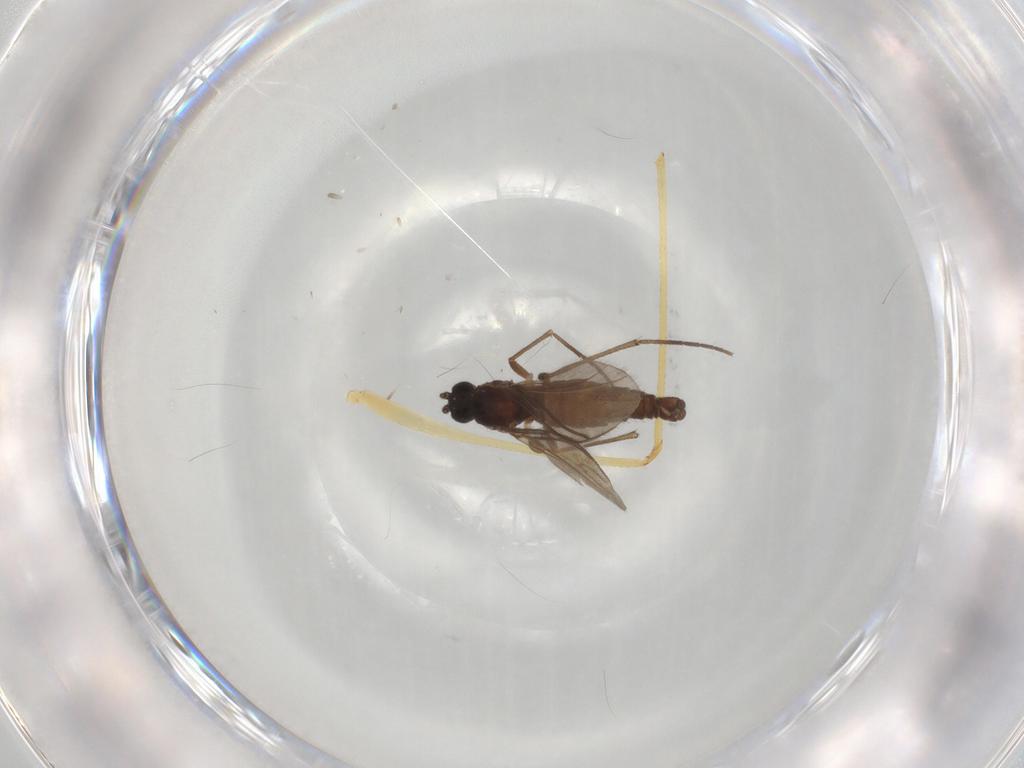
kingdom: Animalia
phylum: Arthropoda
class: Insecta
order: Diptera
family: Sciaridae
